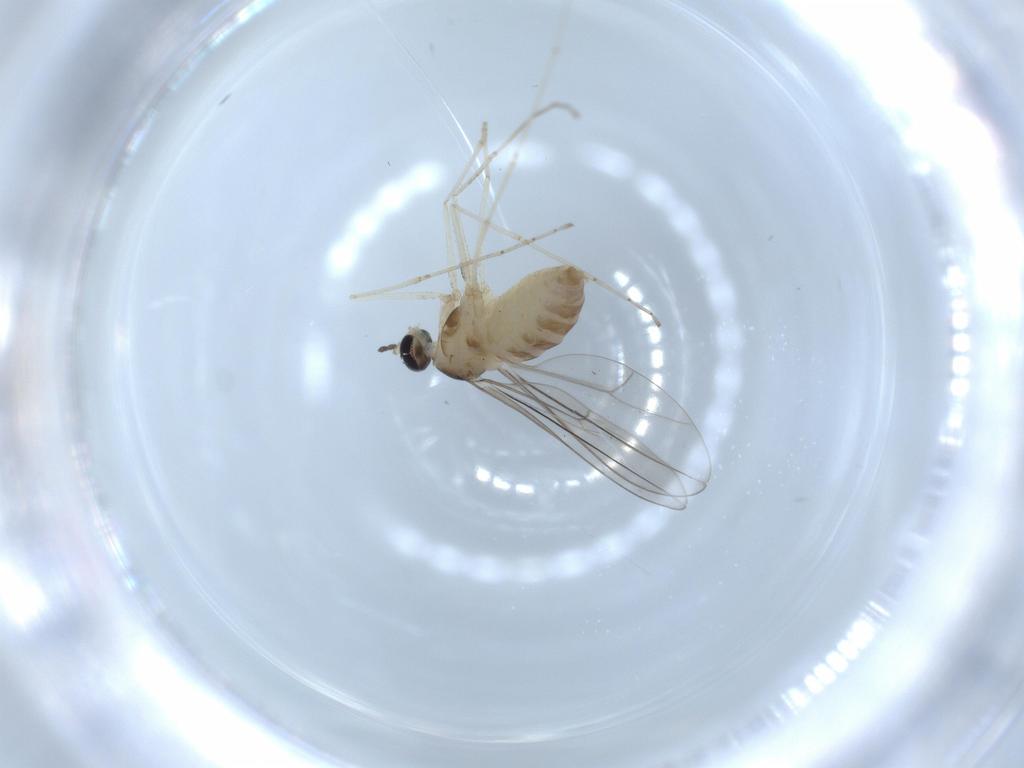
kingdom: Animalia
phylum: Arthropoda
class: Insecta
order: Diptera
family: Cecidomyiidae
